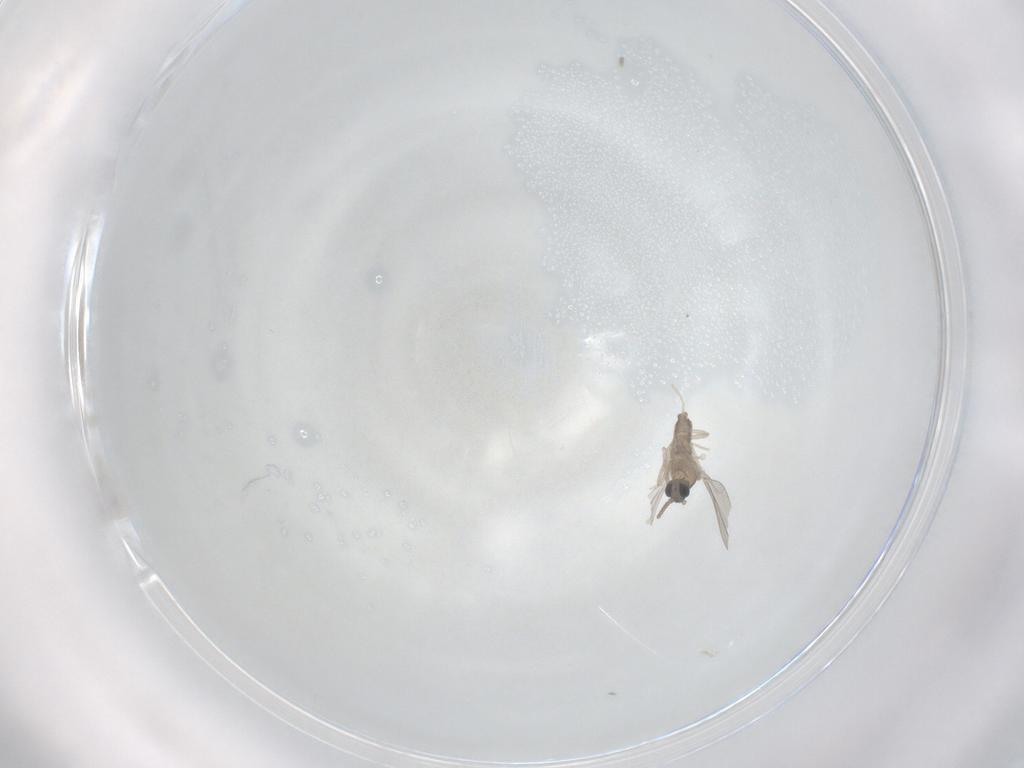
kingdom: Animalia
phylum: Arthropoda
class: Insecta
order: Diptera
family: Cecidomyiidae
